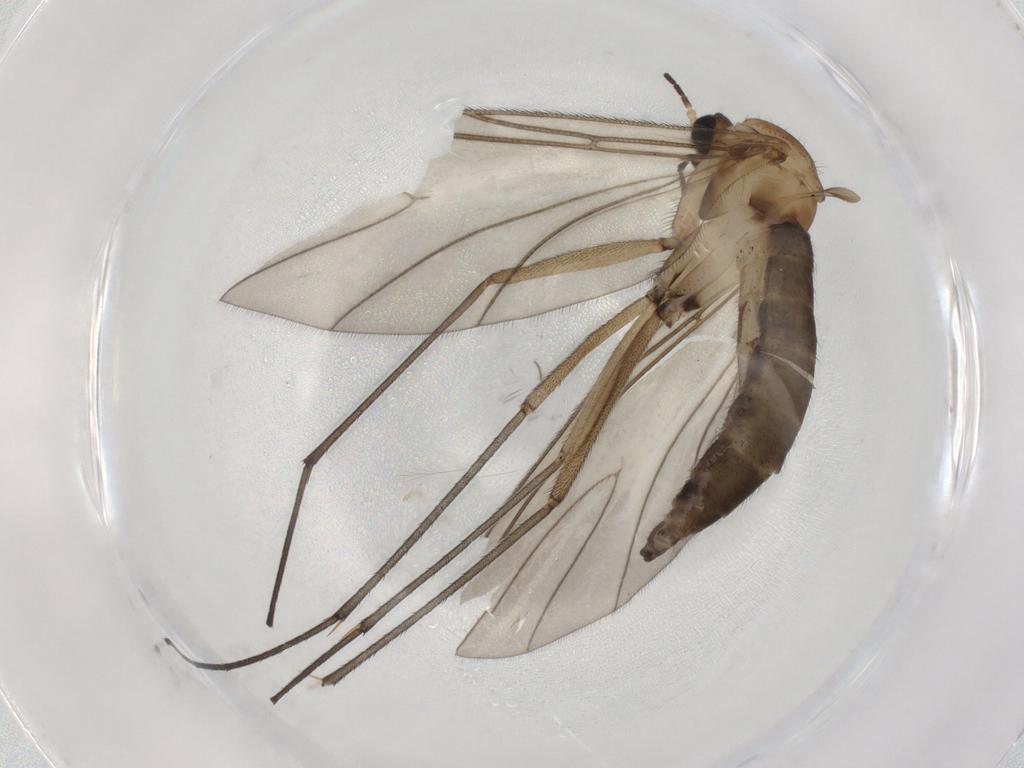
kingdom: Animalia
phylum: Arthropoda
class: Insecta
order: Diptera
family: Sciaridae
